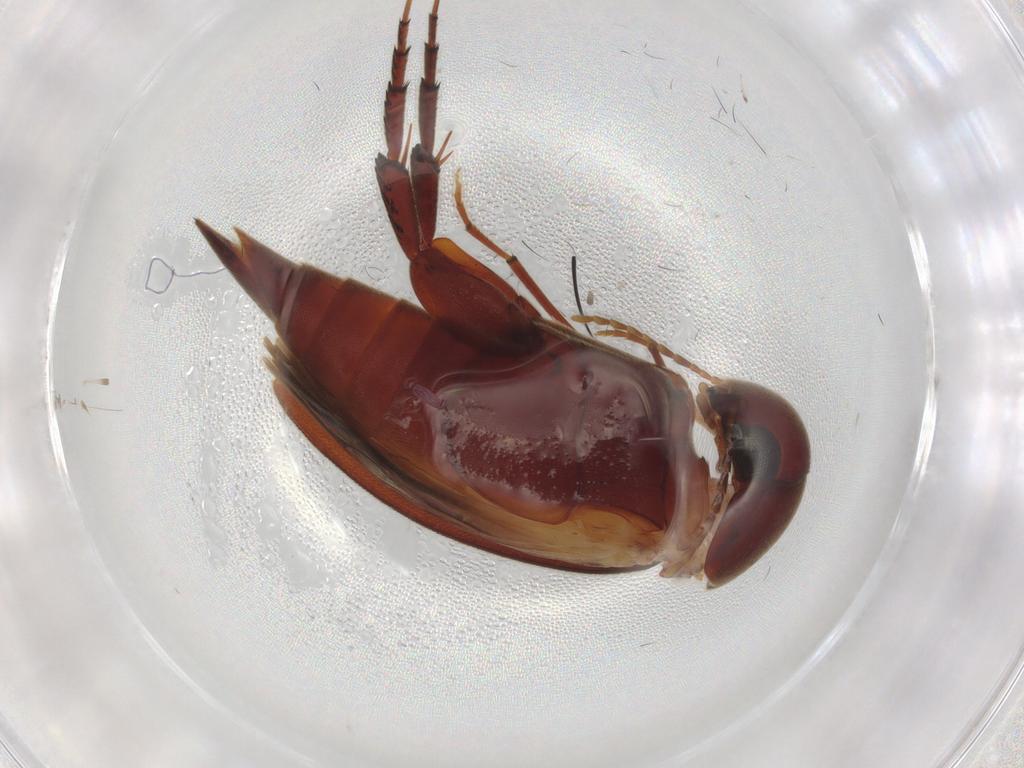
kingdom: Animalia
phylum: Arthropoda
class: Insecta
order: Coleoptera
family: Mordellidae
